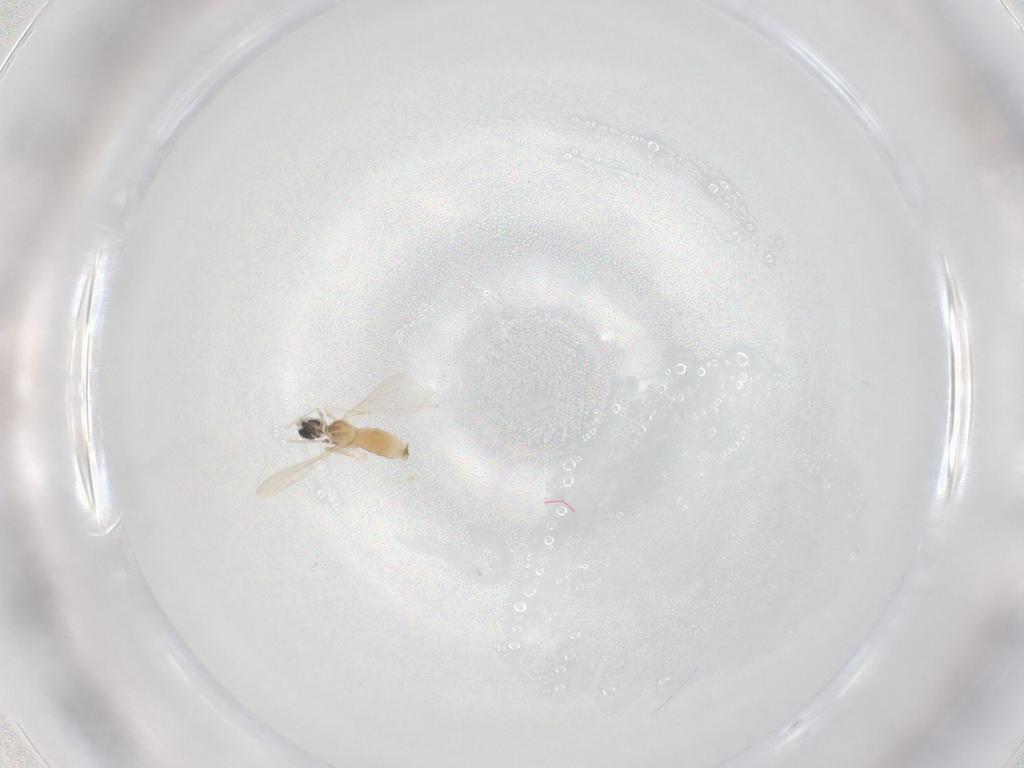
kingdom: Animalia
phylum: Arthropoda
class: Insecta
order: Diptera
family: Cecidomyiidae
